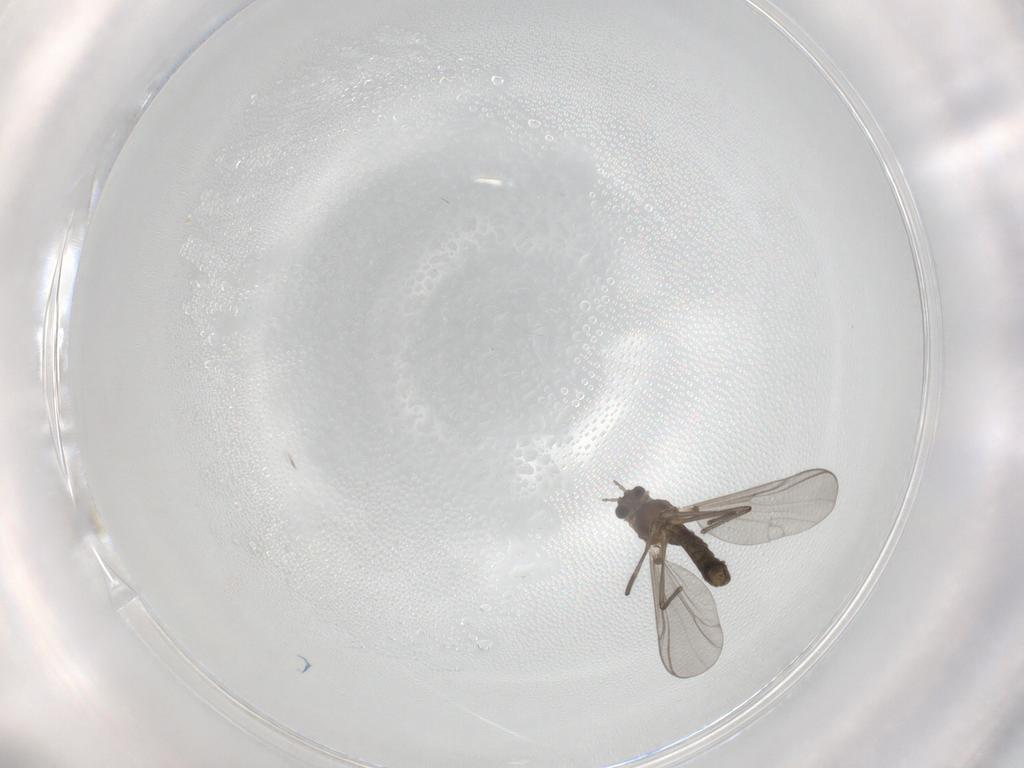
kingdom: Animalia
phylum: Arthropoda
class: Insecta
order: Diptera
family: Chironomidae
